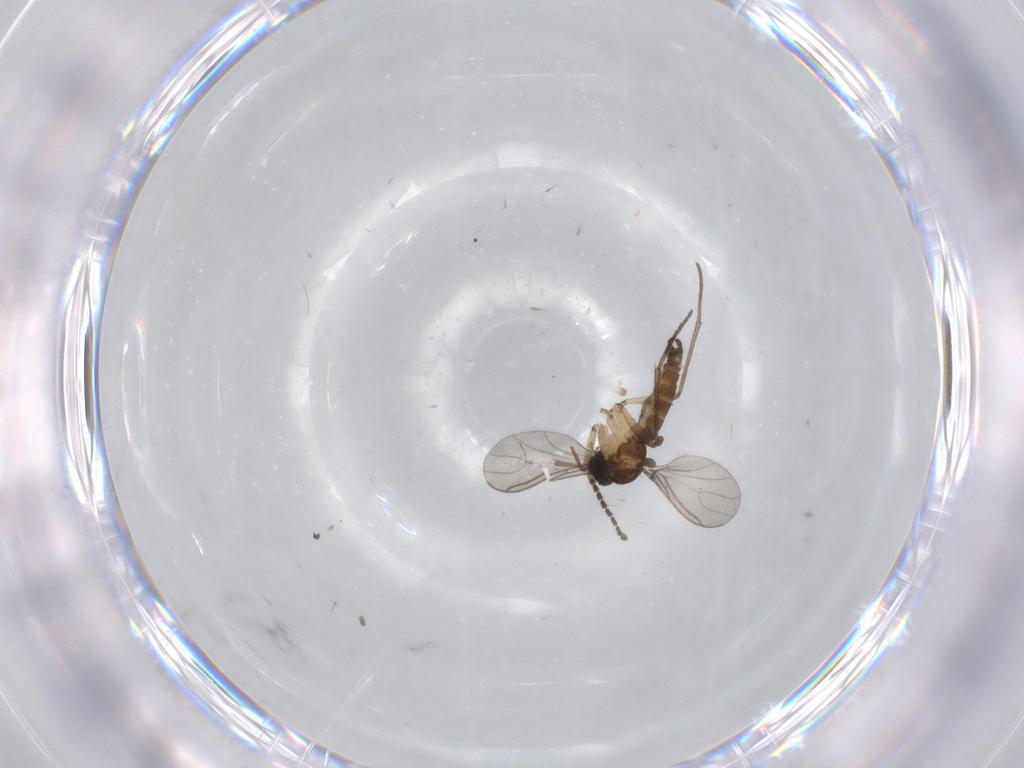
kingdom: Animalia
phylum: Arthropoda
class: Insecta
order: Diptera
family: Sciaridae
